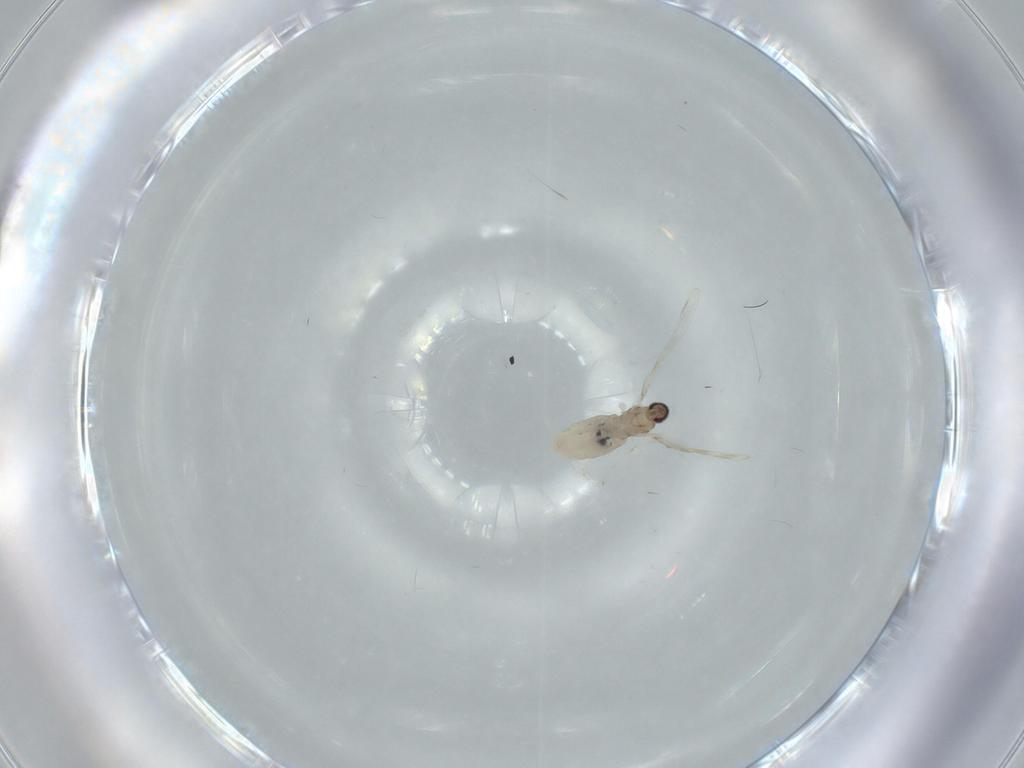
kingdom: Animalia
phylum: Arthropoda
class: Insecta
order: Diptera
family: Cecidomyiidae
